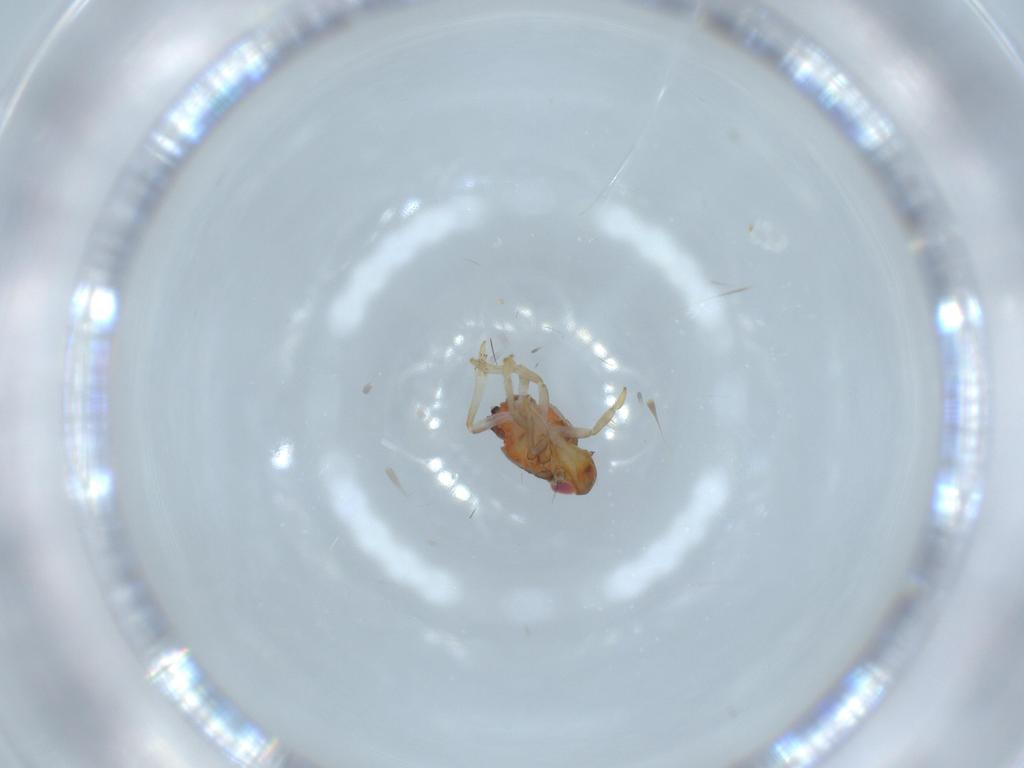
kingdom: Animalia
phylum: Arthropoda
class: Insecta
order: Hemiptera
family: Issidae
